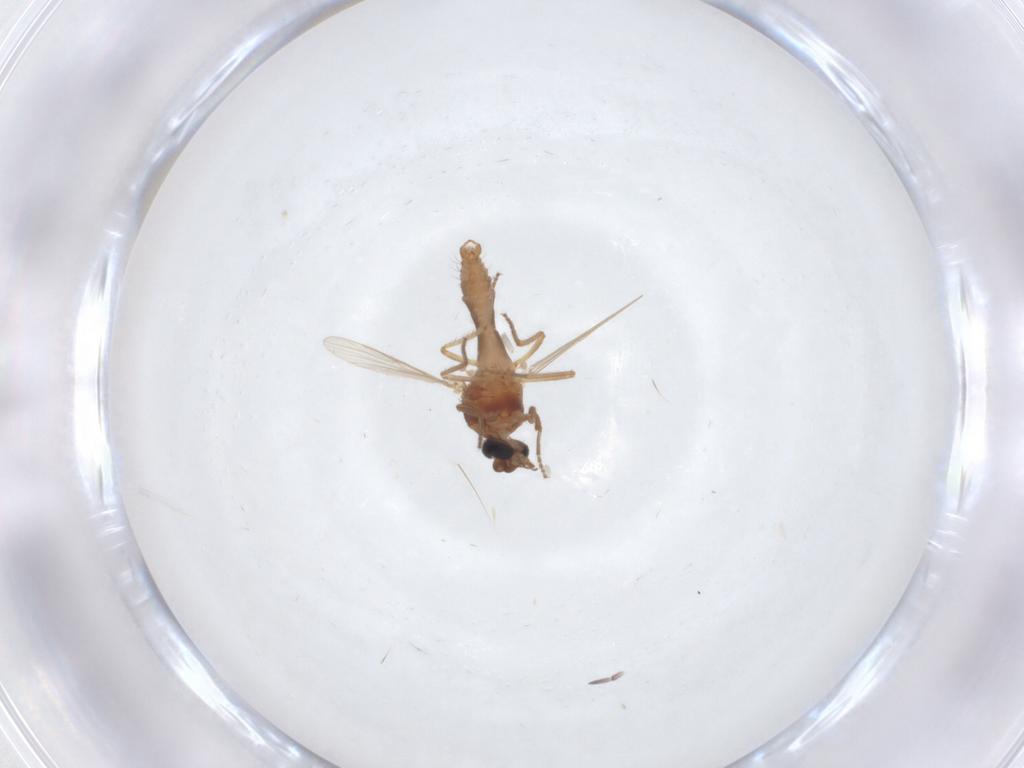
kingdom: Animalia
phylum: Arthropoda
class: Insecta
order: Diptera
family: Ceratopogonidae
